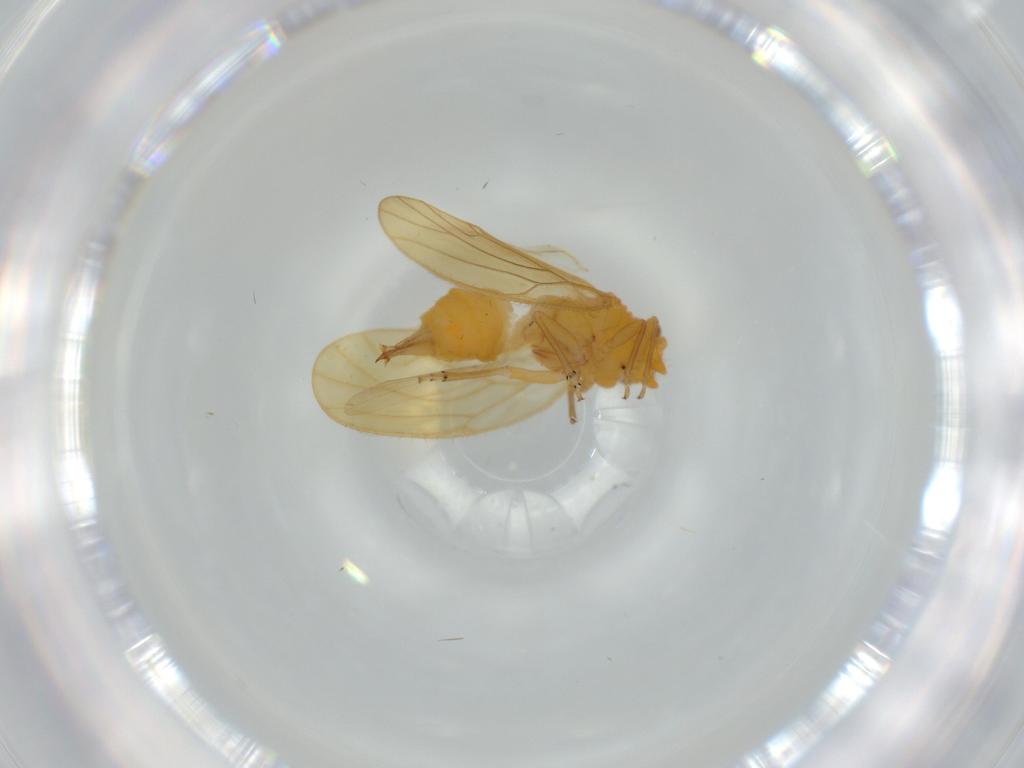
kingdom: Animalia
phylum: Arthropoda
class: Insecta
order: Hemiptera
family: Psyllidae
